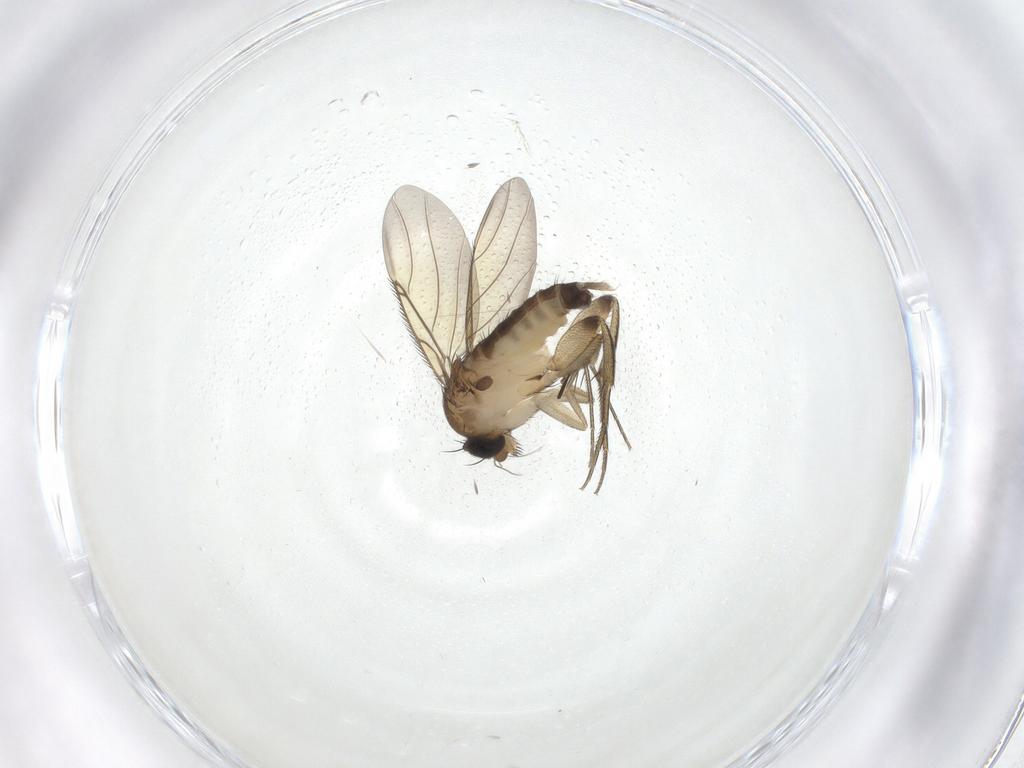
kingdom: Animalia
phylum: Arthropoda
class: Insecta
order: Diptera
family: Phoridae
